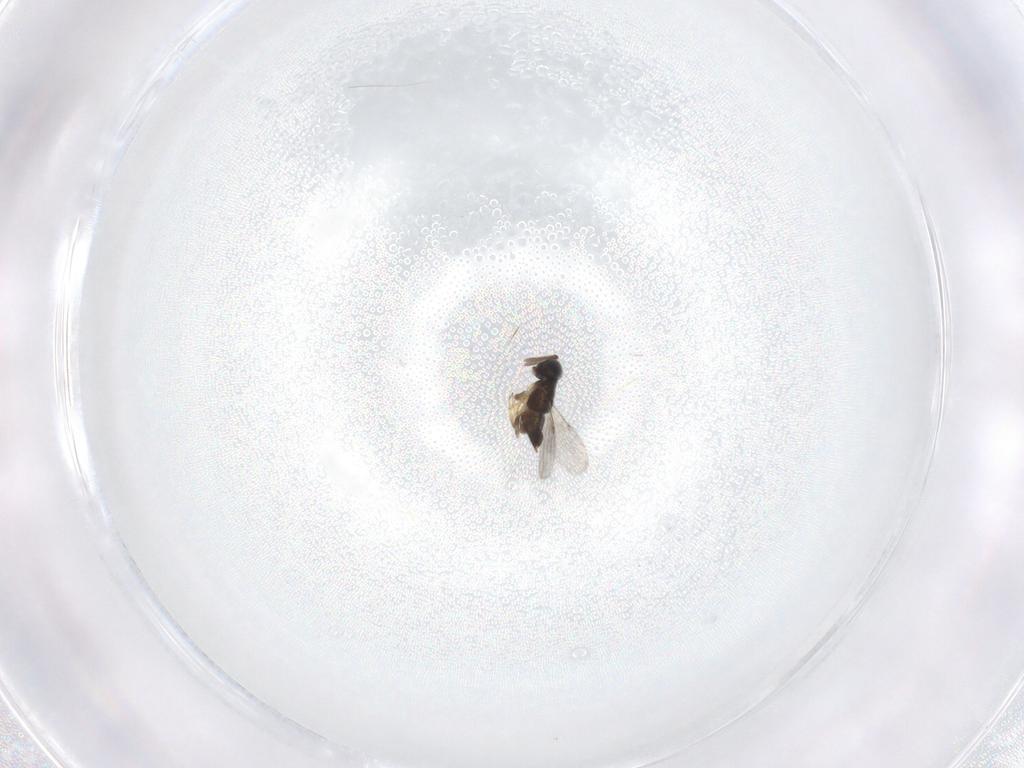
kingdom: Animalia
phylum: Arthropoda
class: Insecta
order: Hymenoptera
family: Encyrtidae
